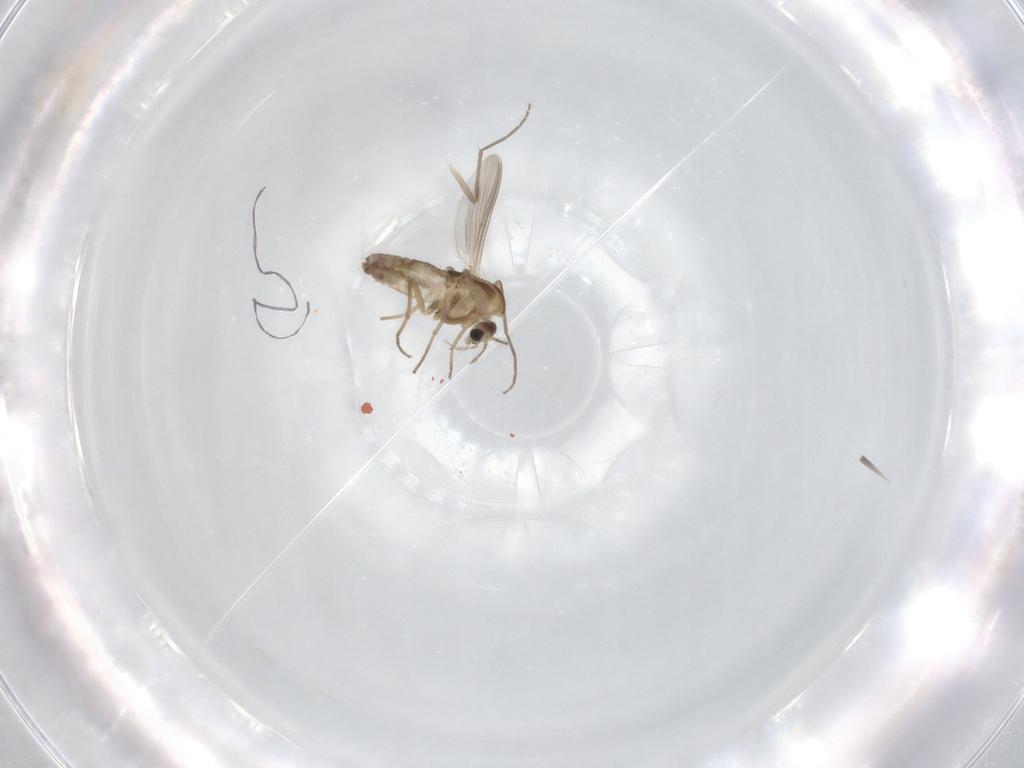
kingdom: Animalia
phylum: Arthropoda
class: Insecta
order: Diptera
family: Chironomidae
